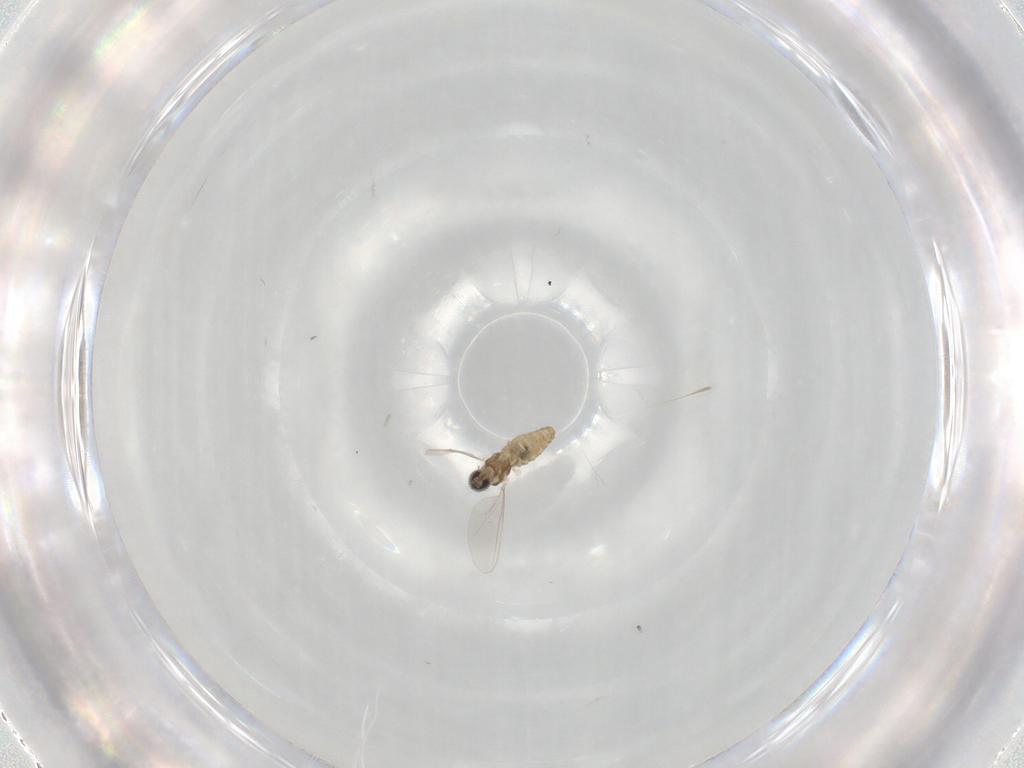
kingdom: Animalia
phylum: Arthropoda
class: Insecta
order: Diptera
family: Cecidomyiidae
